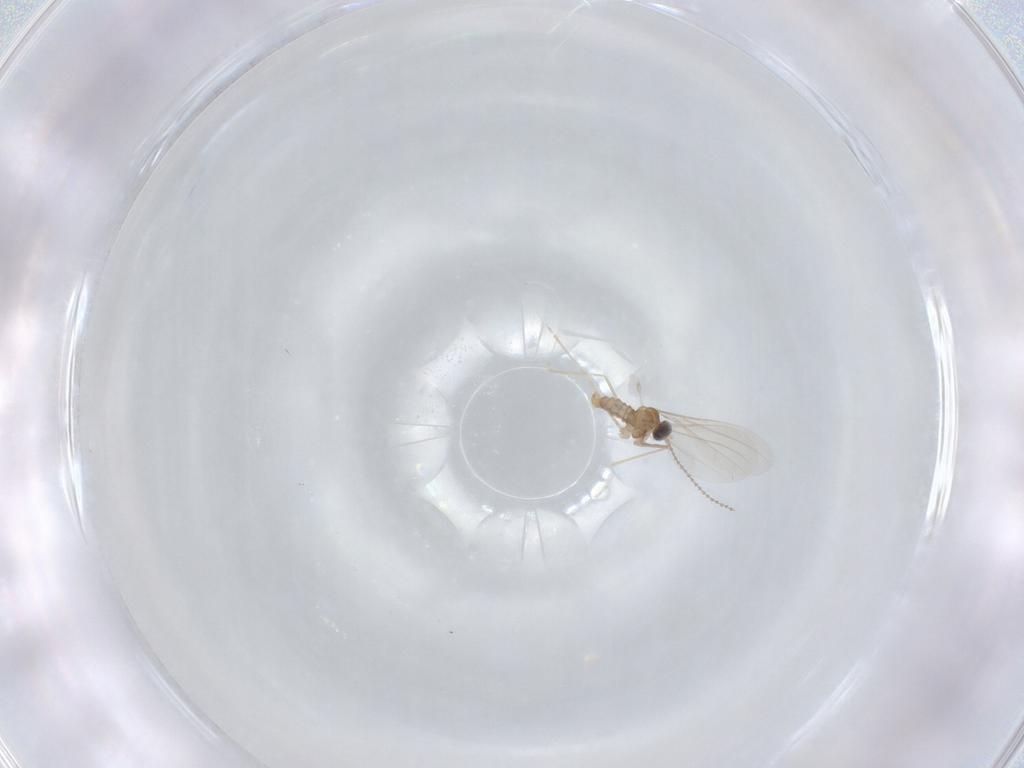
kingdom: Animalia
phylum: Arthropoda
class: Insecta
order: Diptera
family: Cecidomyiidae
